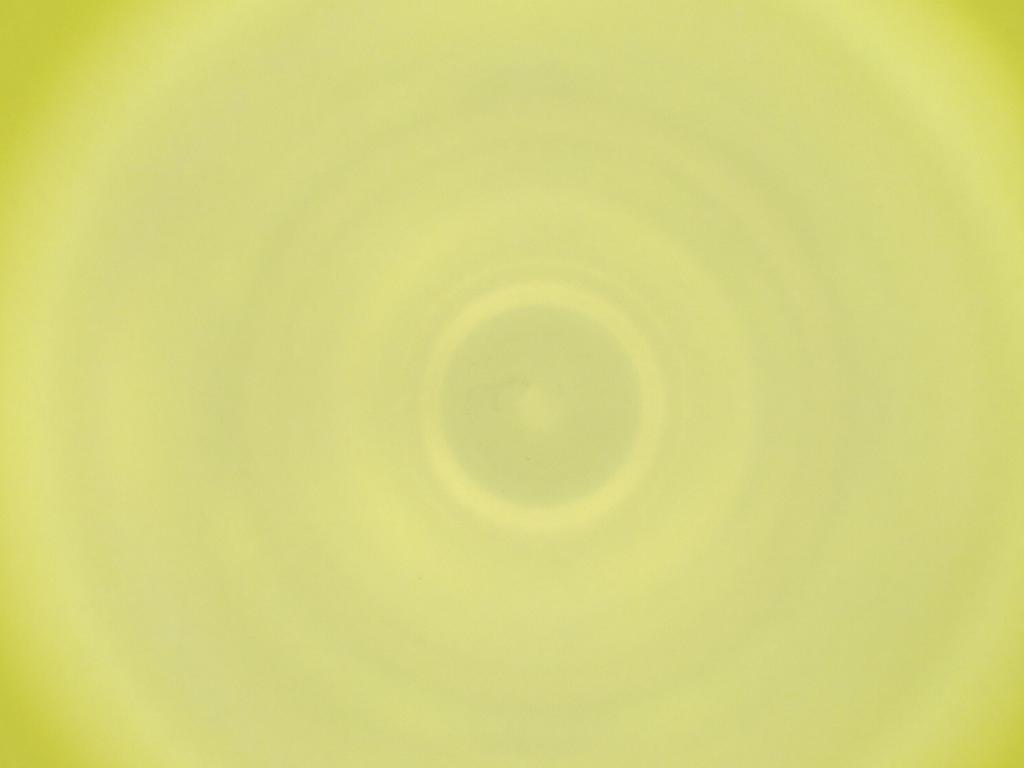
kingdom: Animalia
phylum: Arthropoda
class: Insecta
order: Diptera
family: Cecidomyiidae
